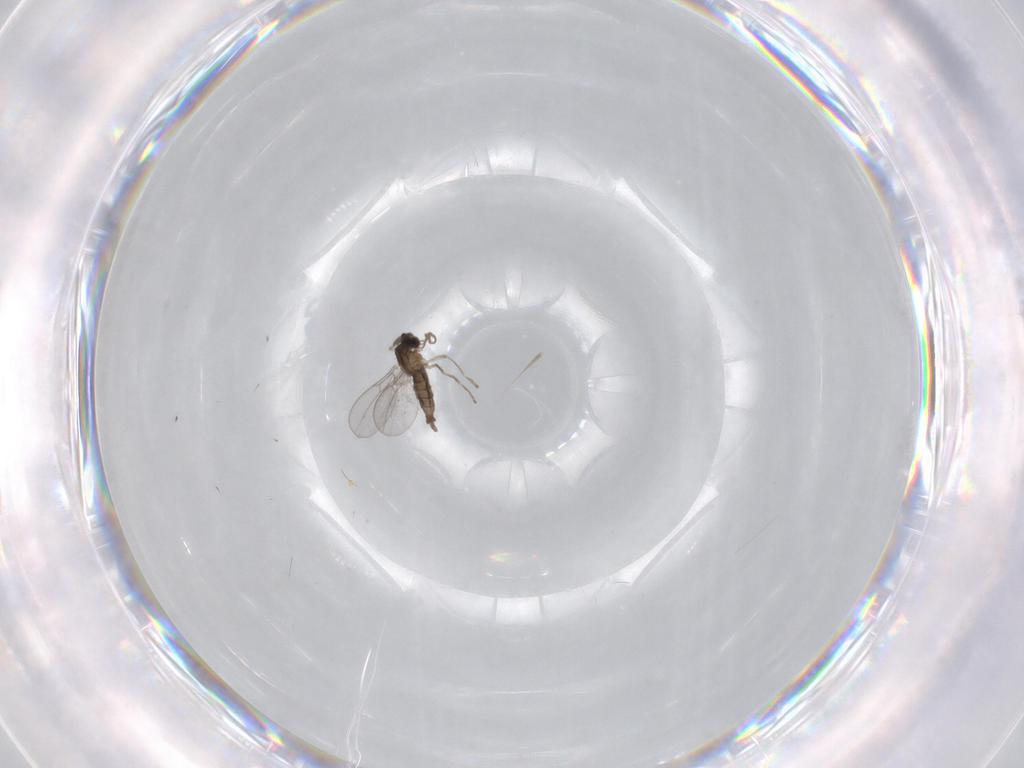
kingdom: Animalia
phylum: Arthropoda
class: Insecta
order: Diptera
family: Cecidomyiidae
